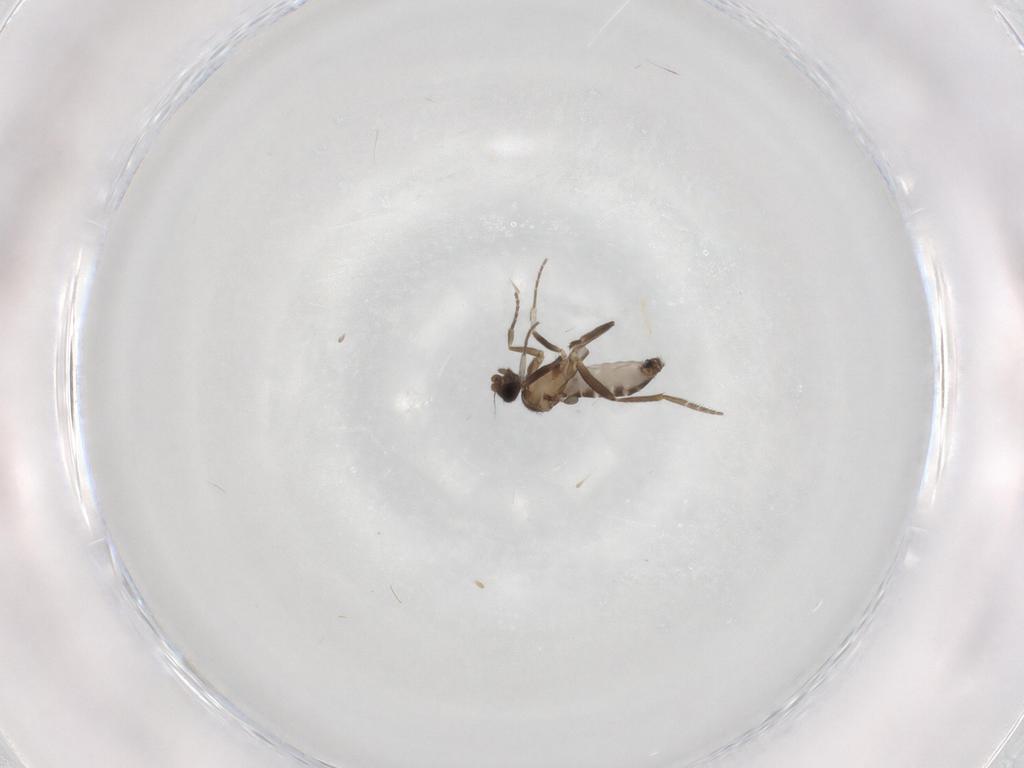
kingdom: Animalia
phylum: Arthropoda
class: Insecta
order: Diptera
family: Phoridae
